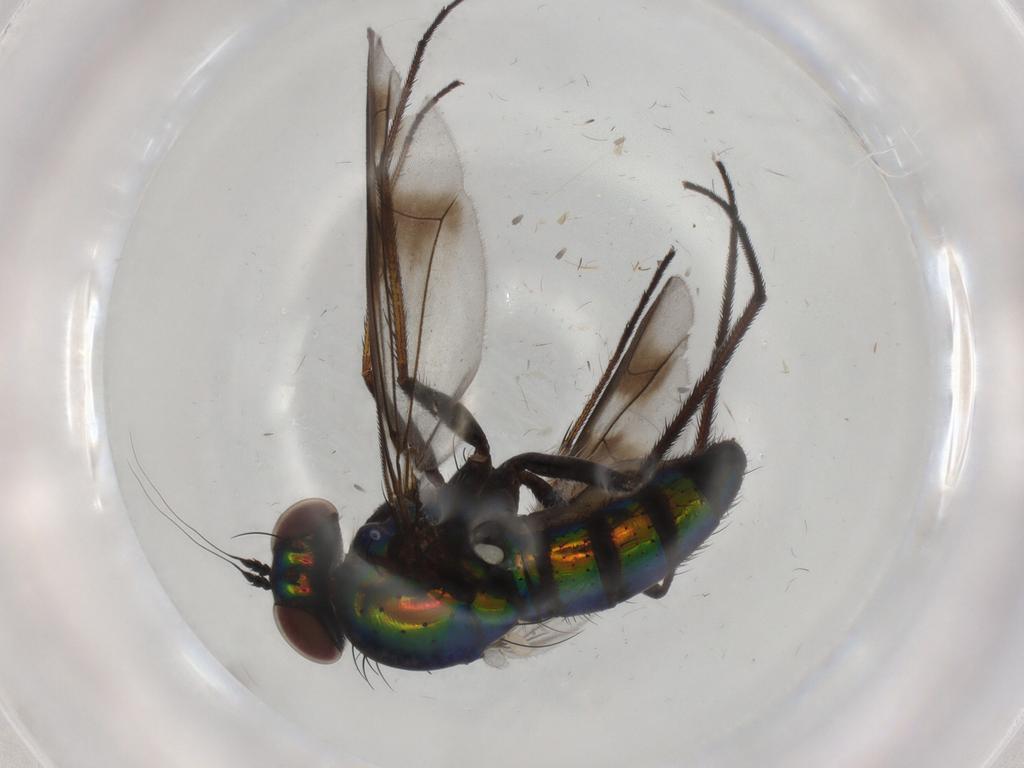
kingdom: Animalia
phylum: Arthropoda
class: Insecta
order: Diptera
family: Dolichopodidae
